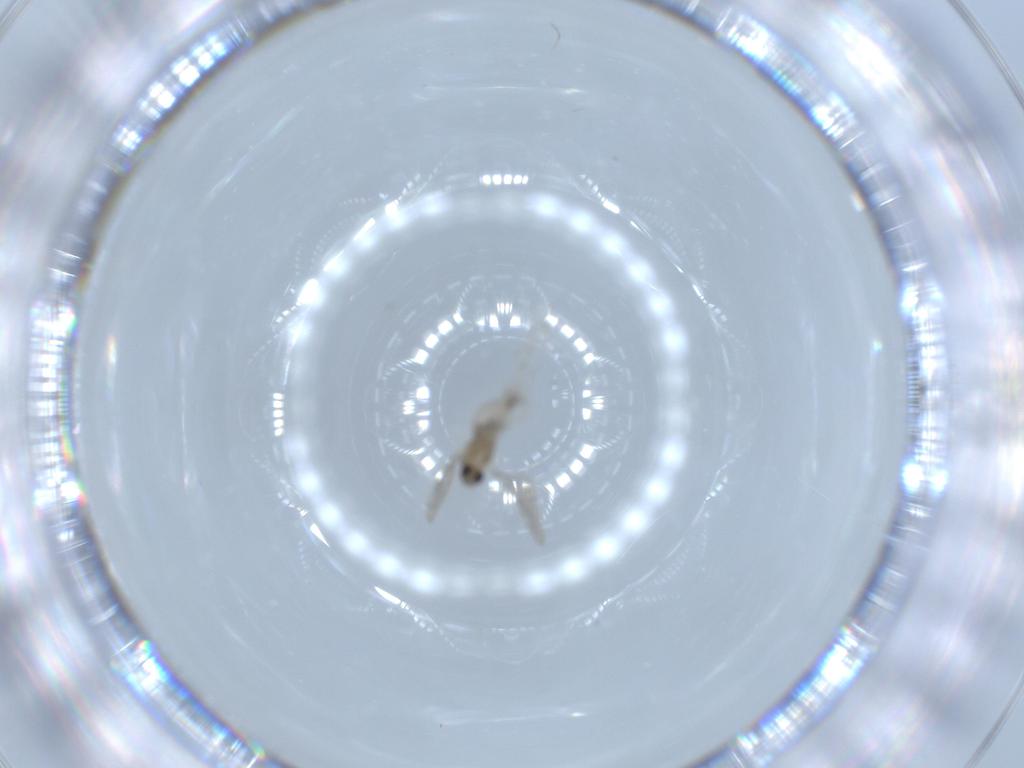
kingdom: Animalia
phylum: Arthropoda
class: Insecta
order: Diptera
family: Cecidomyiidae
